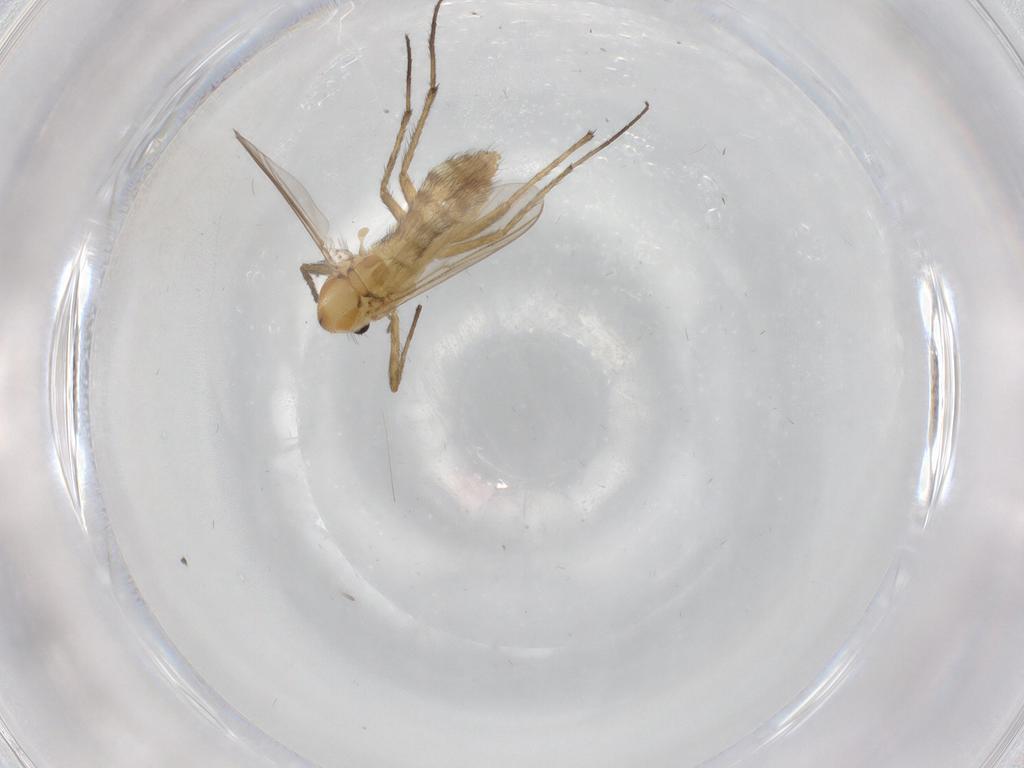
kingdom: Animalia
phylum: Arthropoda
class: Insecta
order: Diptera
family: Chironomidae
